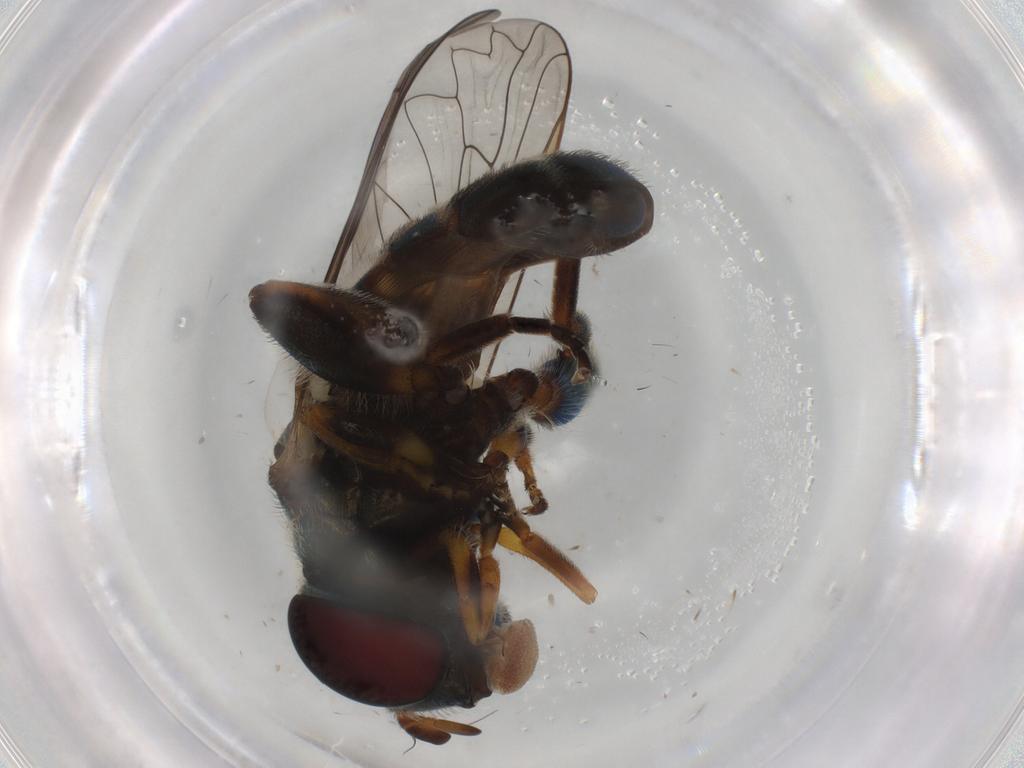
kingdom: Animalia
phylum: Arthropoda
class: Insecta
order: Diptera
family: Syrphidae
